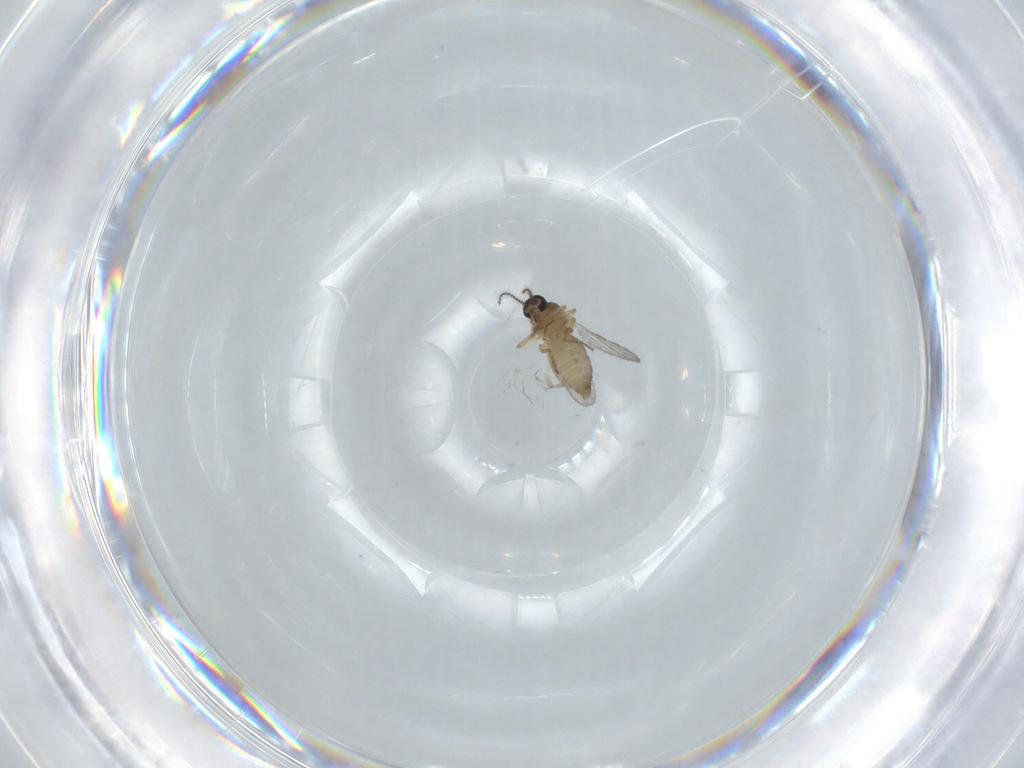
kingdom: Animalia
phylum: Arthropoda
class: Insecta
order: Diptera
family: Ceratopogonidae
